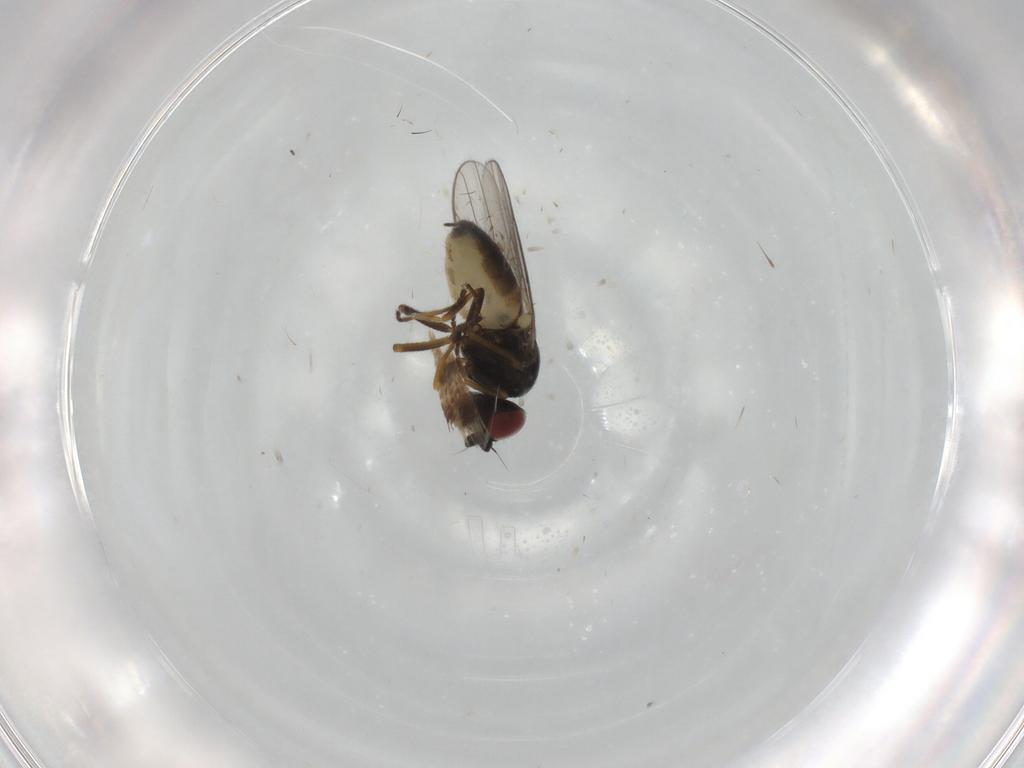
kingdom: Animalia
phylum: Arthropoda
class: Insecta
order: Diptera
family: Chloropidae
